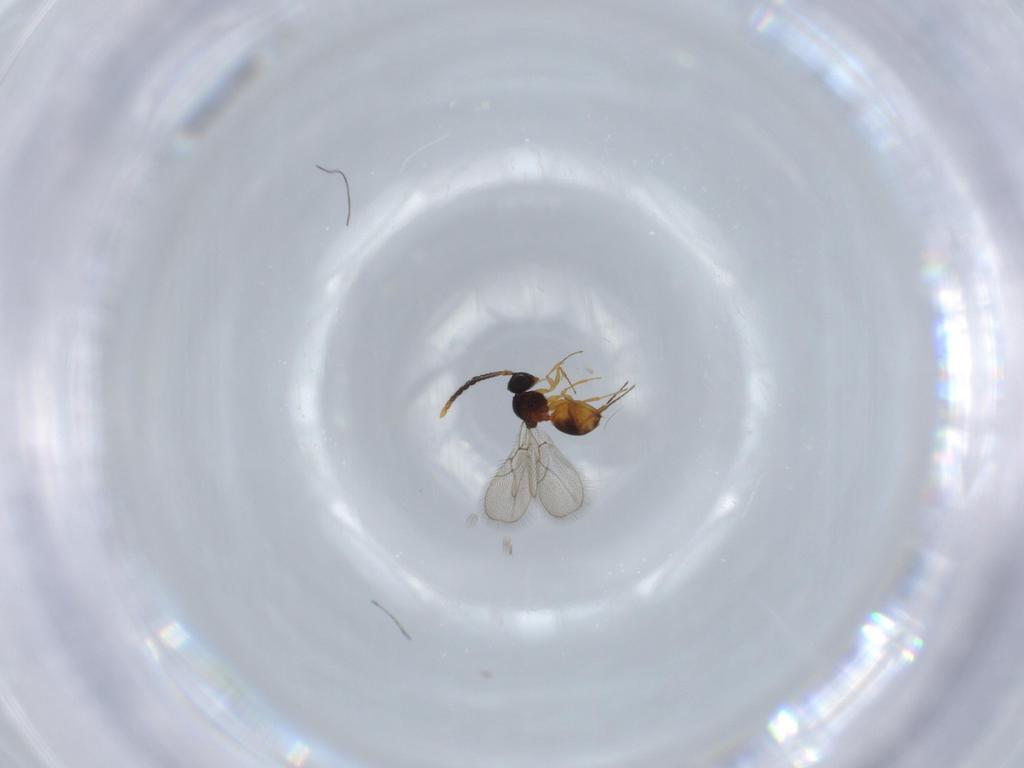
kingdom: Animalia
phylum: Arthropoda
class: Insecta
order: Hymenoptera
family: Figitidae
